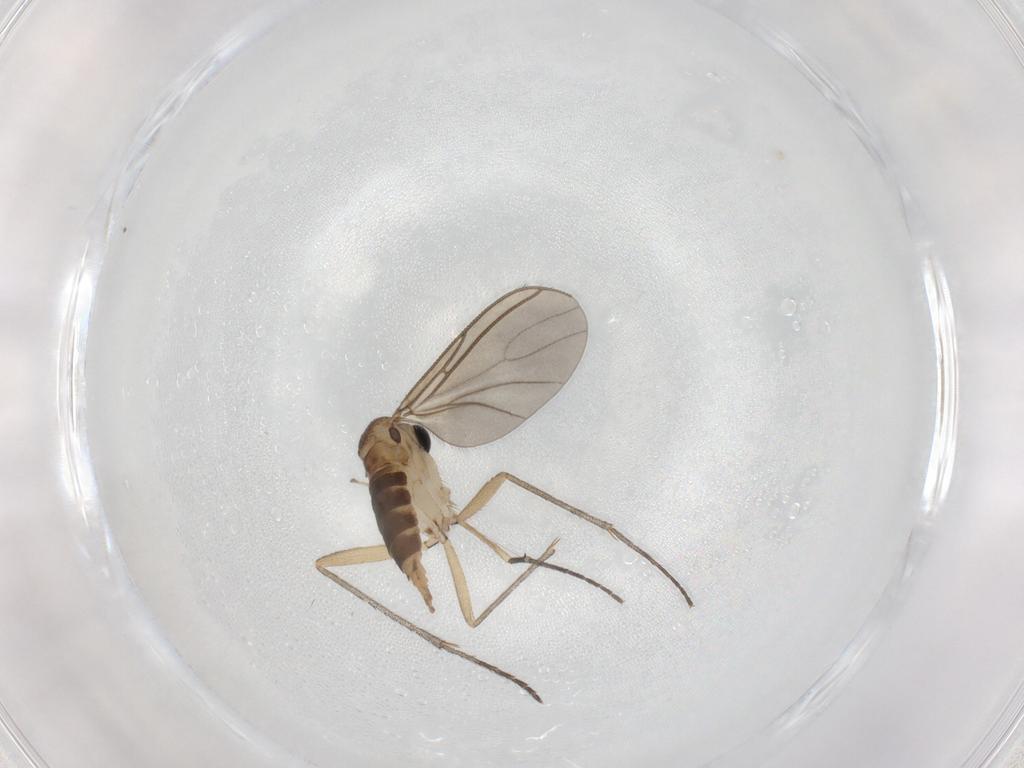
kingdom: Animalia
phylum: Arthropoda
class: Insecta
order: Diptera
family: Sciaridae
